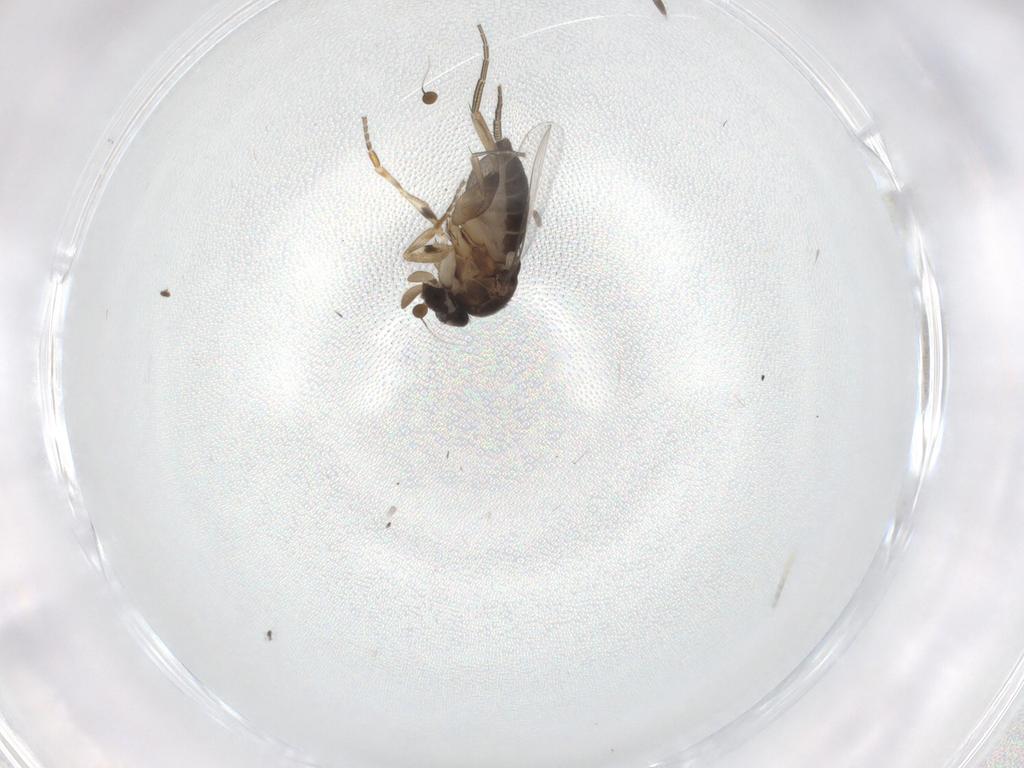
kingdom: Animalia
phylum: Arthropoda
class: Insecta
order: Diptera
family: Phoridae
